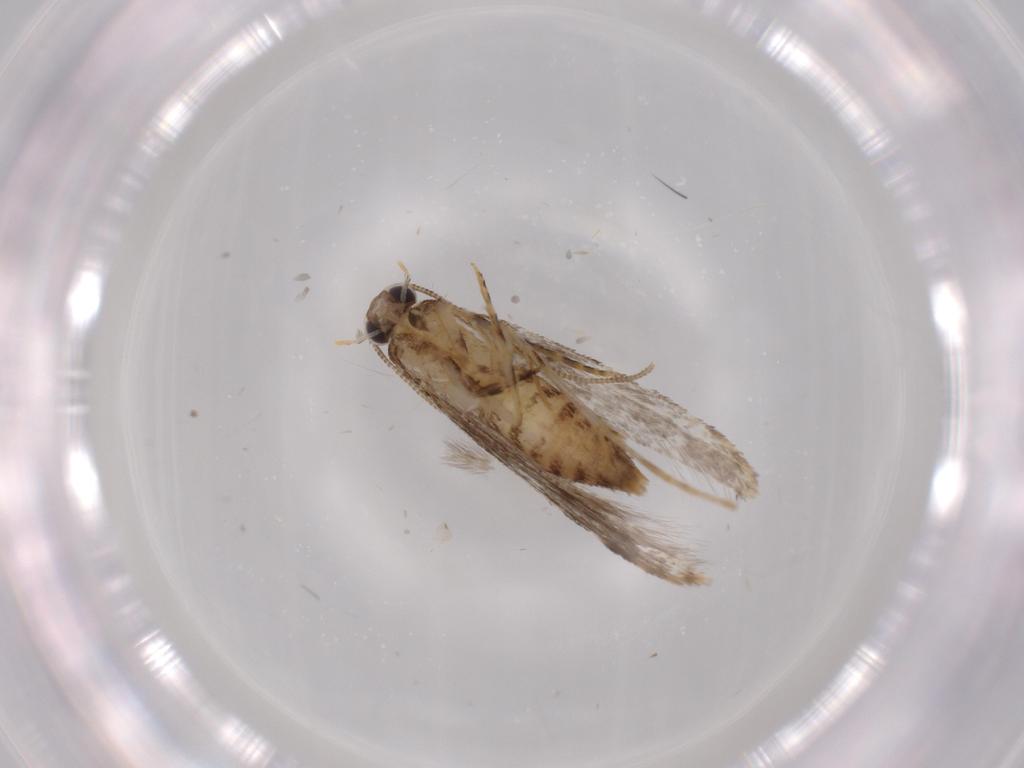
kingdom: Animalia
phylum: Arthropoda
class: Insecta
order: Lepidoptera
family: Tineidae
